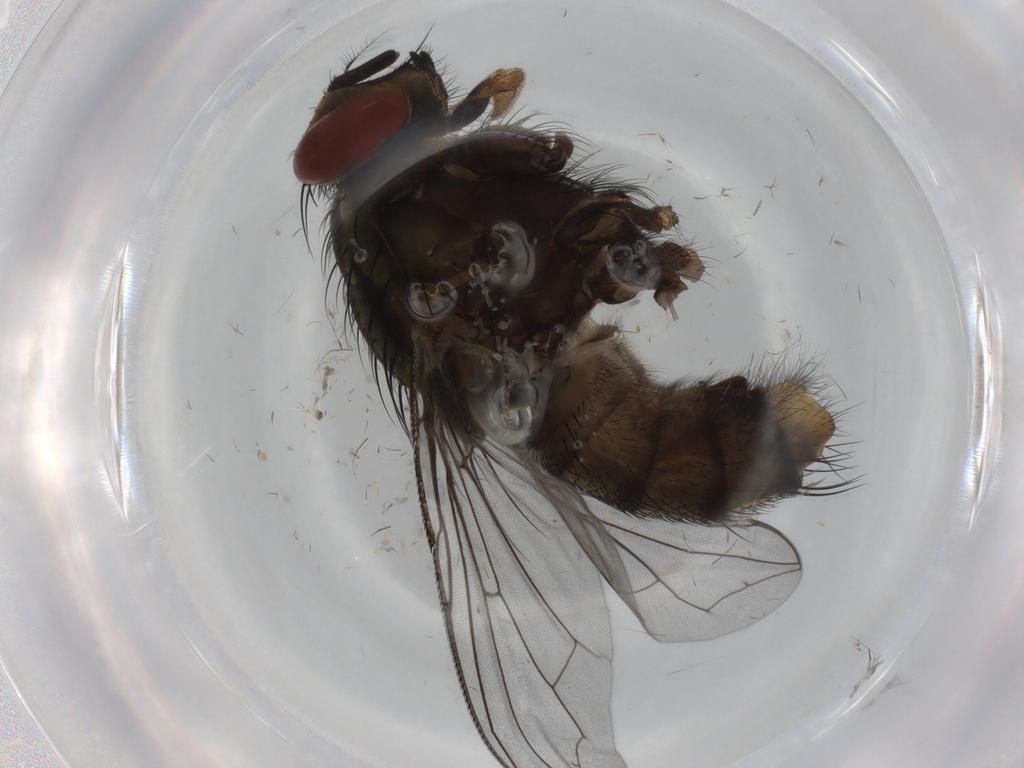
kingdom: Animalia
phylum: Arthropoda
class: Insecta
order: Diptera
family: Sarcophagidae
